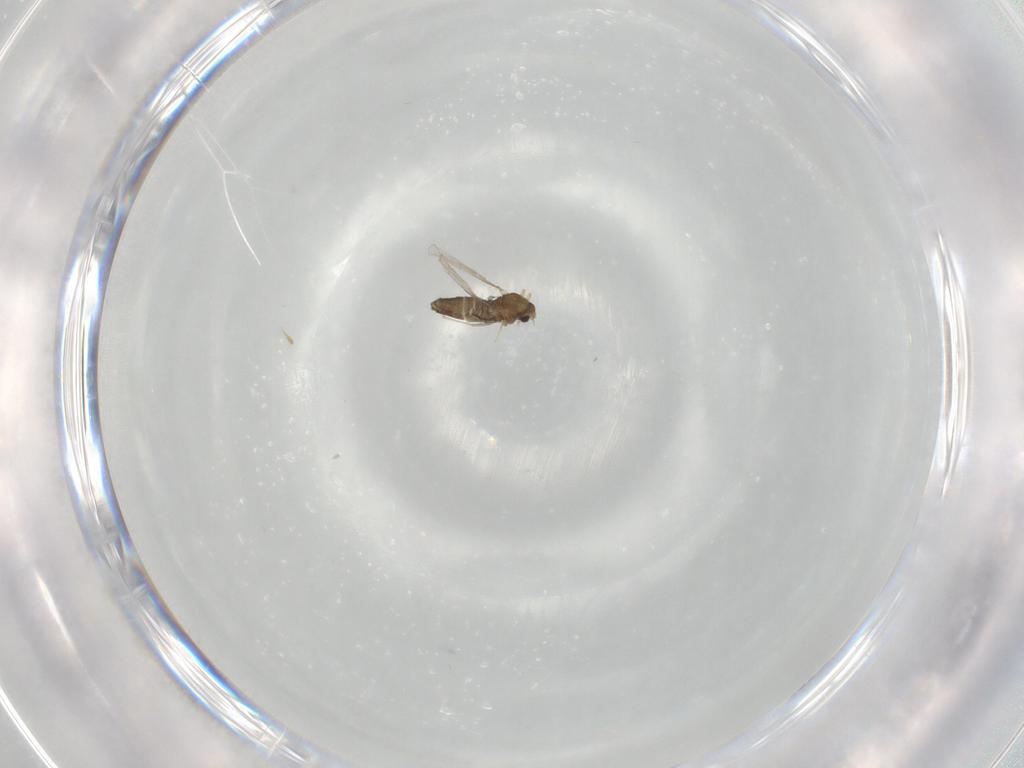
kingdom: Animalia
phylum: Arthropoda
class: Insecta
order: Diptera
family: Chironomidae
